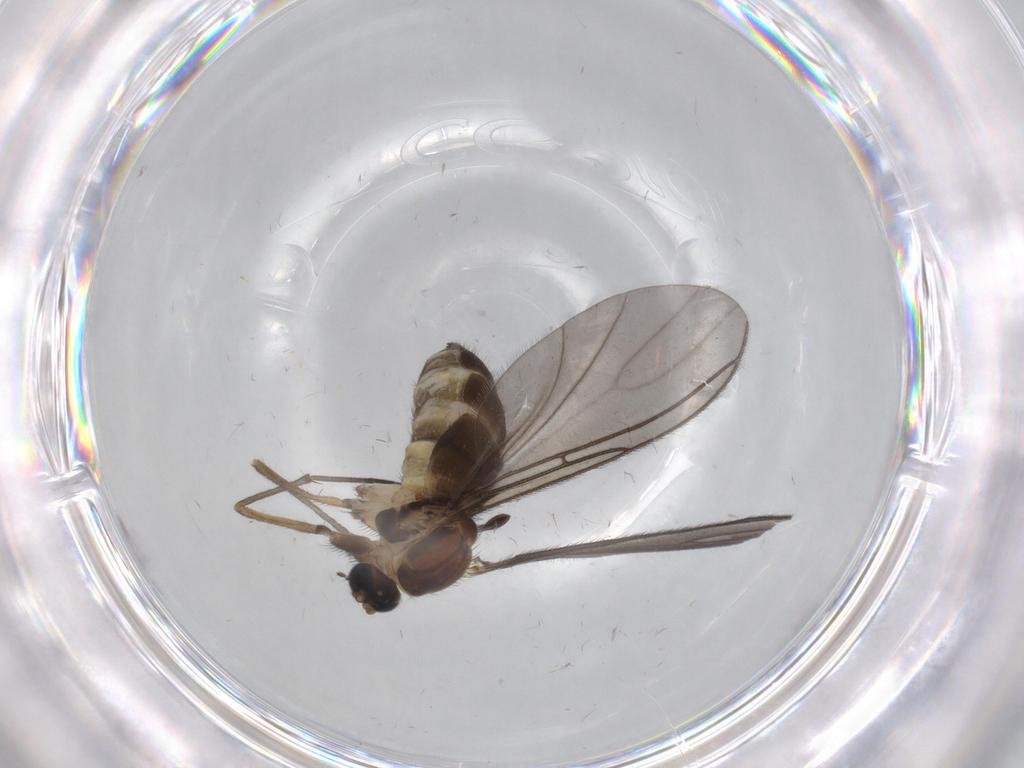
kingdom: Animalia
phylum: Arthropoda
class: Insecta
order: Diptera
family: Sciaridae
